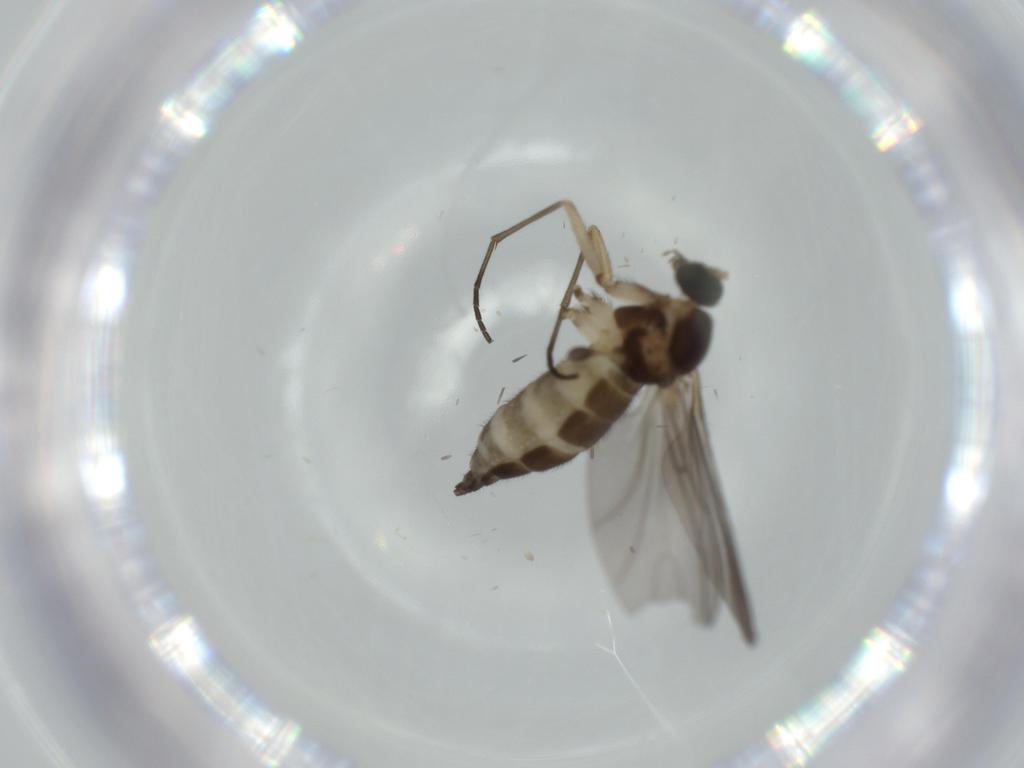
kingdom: Animalia
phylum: Arthropoda
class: Insecta
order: Diptera
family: Sciaridae
